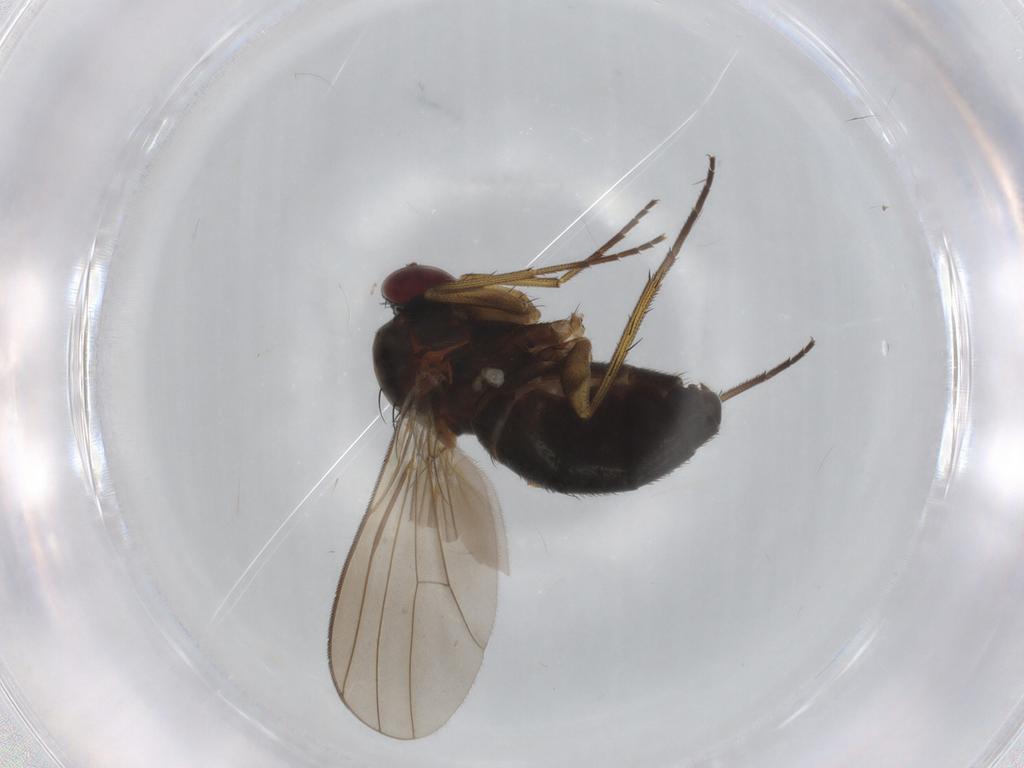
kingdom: Animalia
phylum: Arthropoda
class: Insecta
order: Diptera
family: Dolichopodidae
